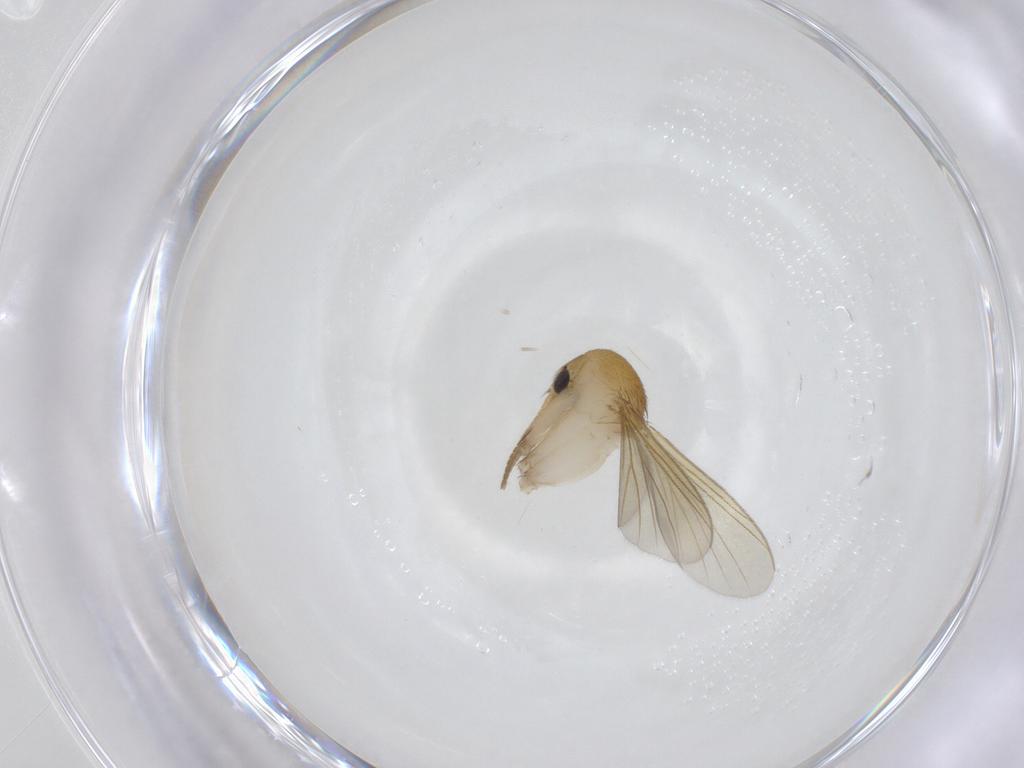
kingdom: Animalia
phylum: Arthropoda
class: Insecta
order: Diptera
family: Mycetophilidae
